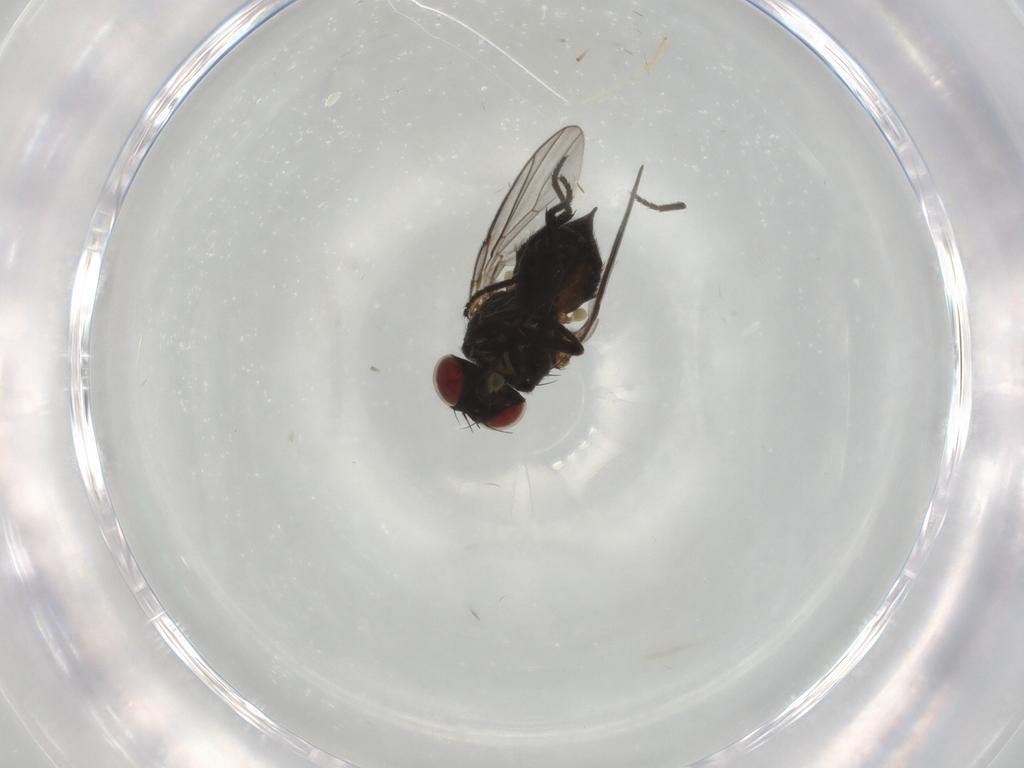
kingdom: Animalia
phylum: Arthropoda
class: Insecta
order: Diptera
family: Agromyzidae
